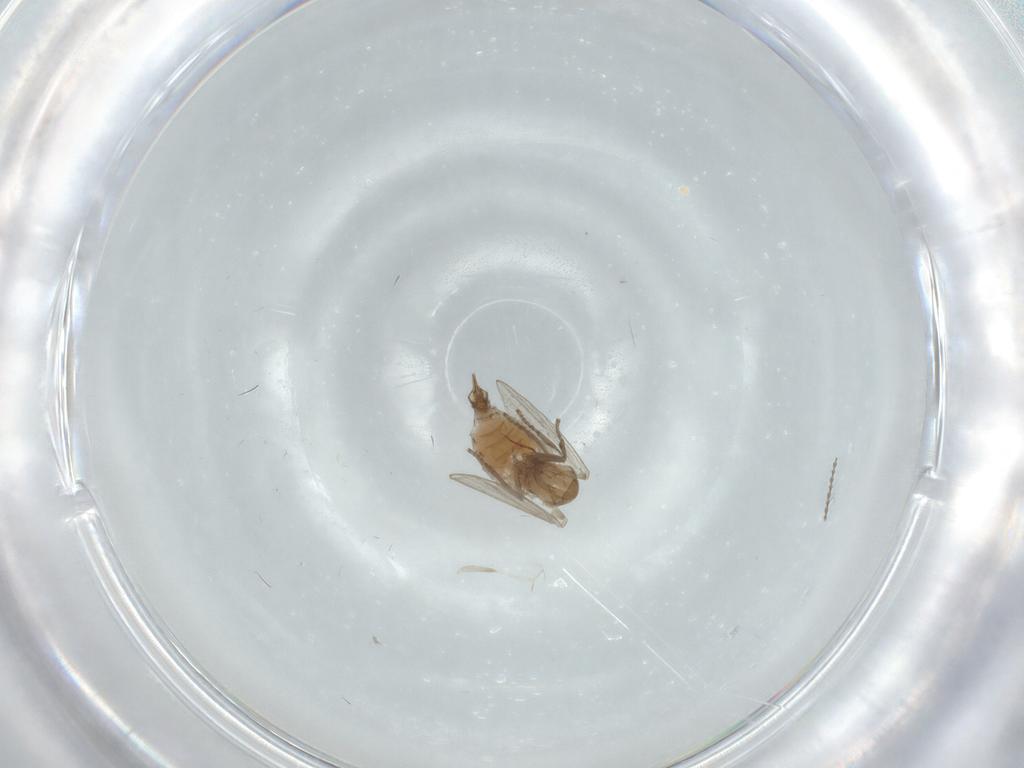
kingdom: Animalia
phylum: Arthropoda
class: Insecta
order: Diptera
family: Psychodidae
